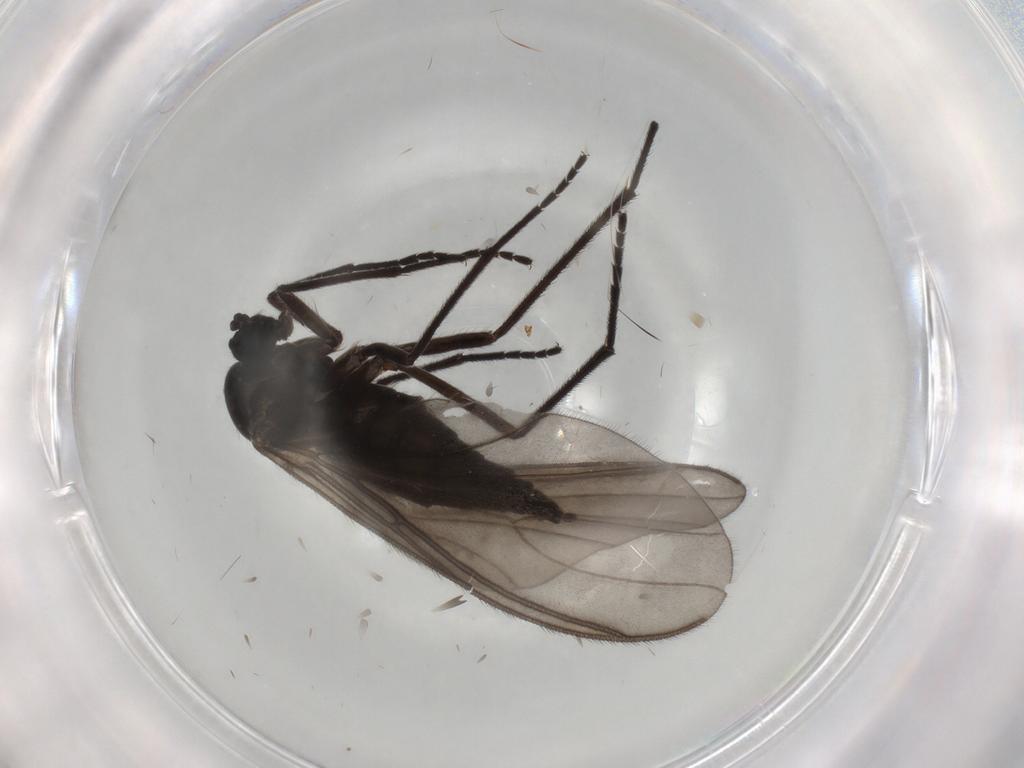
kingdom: Animalia
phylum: Arthropoda
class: Insecta
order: Diptera
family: Sciaridae
